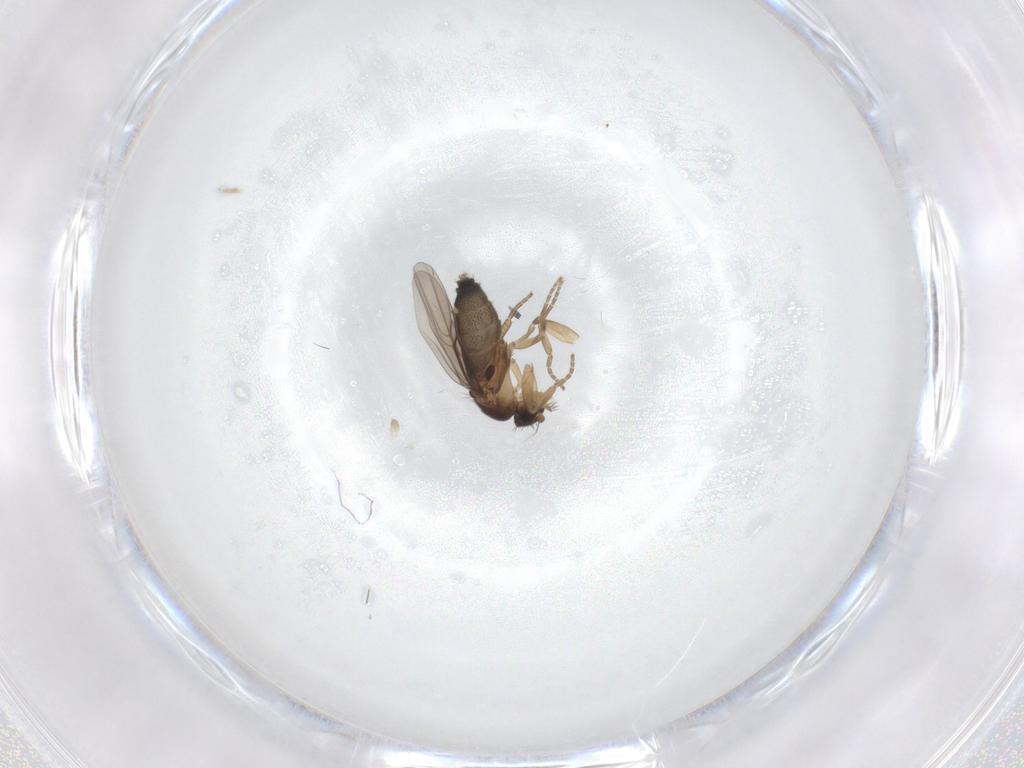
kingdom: Animalia
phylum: Arthropoda
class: Insecta
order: Diptera
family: Phoridae
